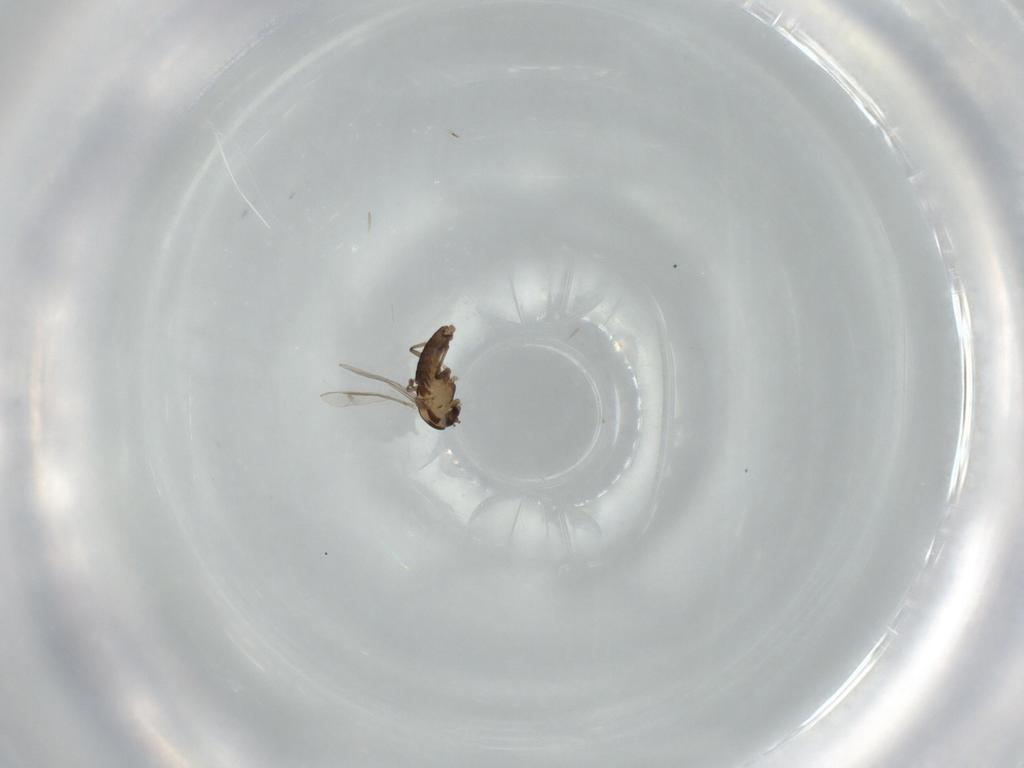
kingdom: Animalia
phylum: Arthropoda
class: Insecta
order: Diptera
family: Chironomidae
